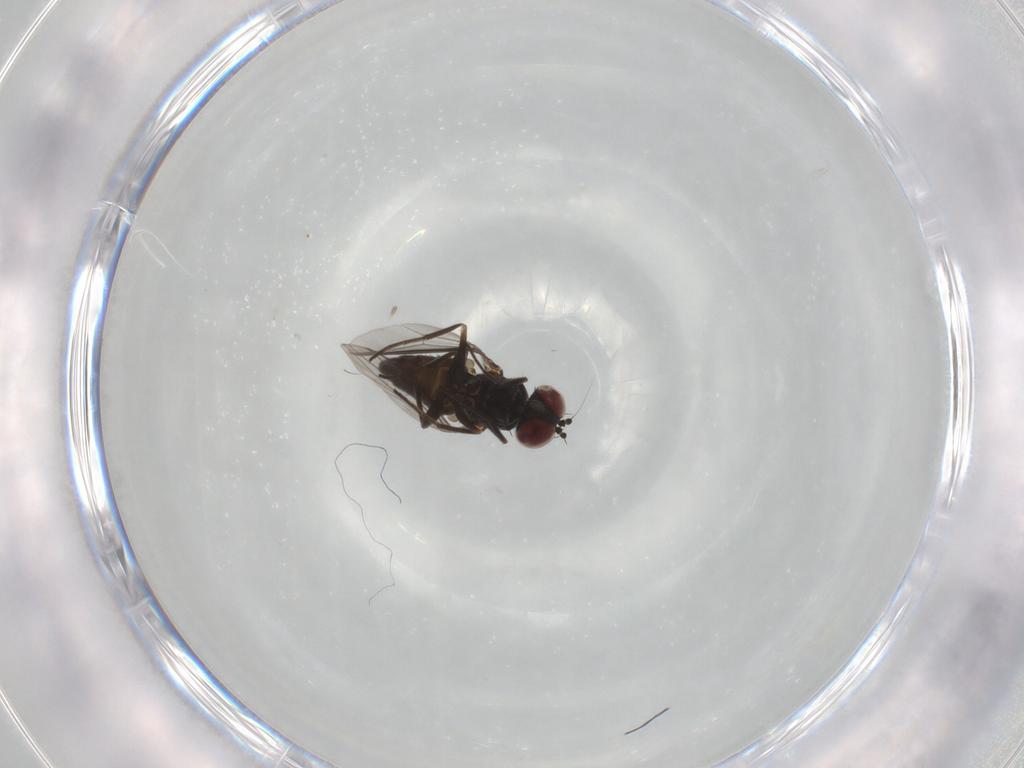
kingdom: Animalia
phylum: Arthropoda
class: Insecta
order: Diptera
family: Dolichopodidae
